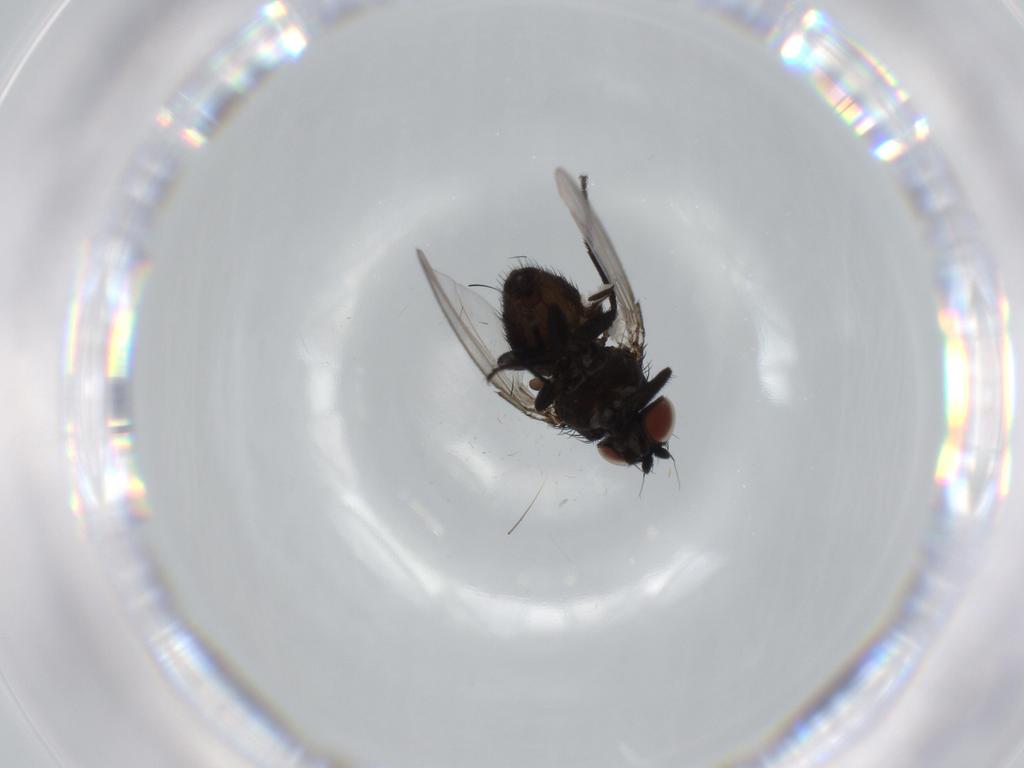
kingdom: Animalia
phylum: Arthropoda
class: Insecta
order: Diptera
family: Milichiidae
